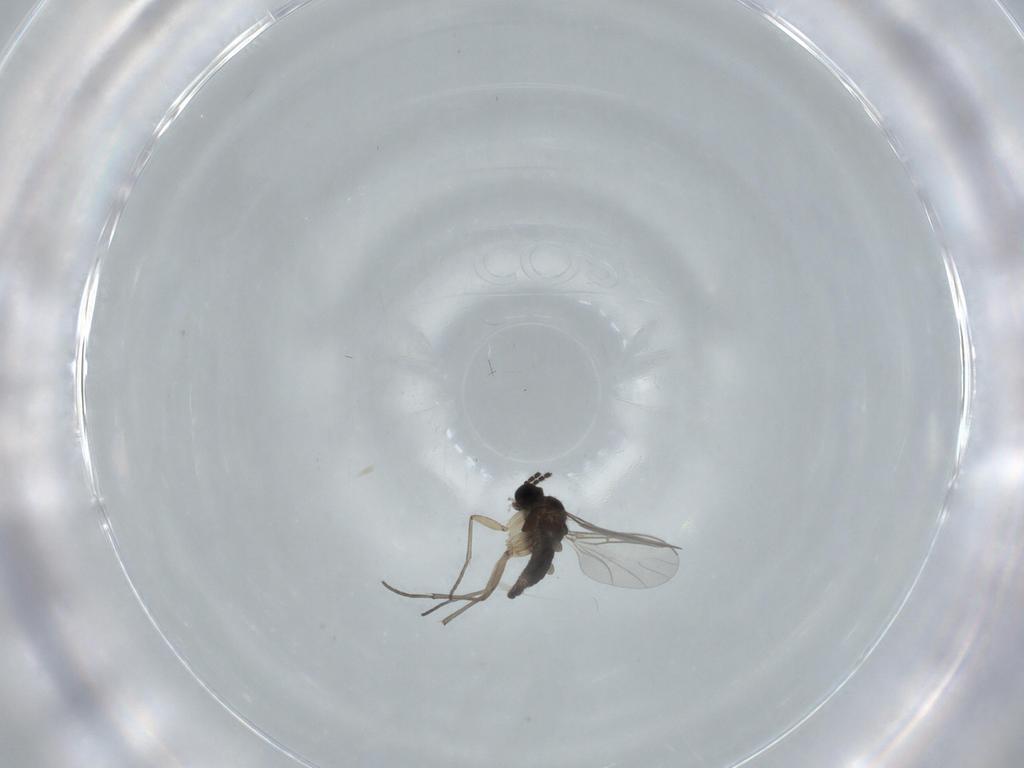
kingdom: Animalia
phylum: Arthropoda
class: Insecta
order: Diptera
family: Sciaridae
